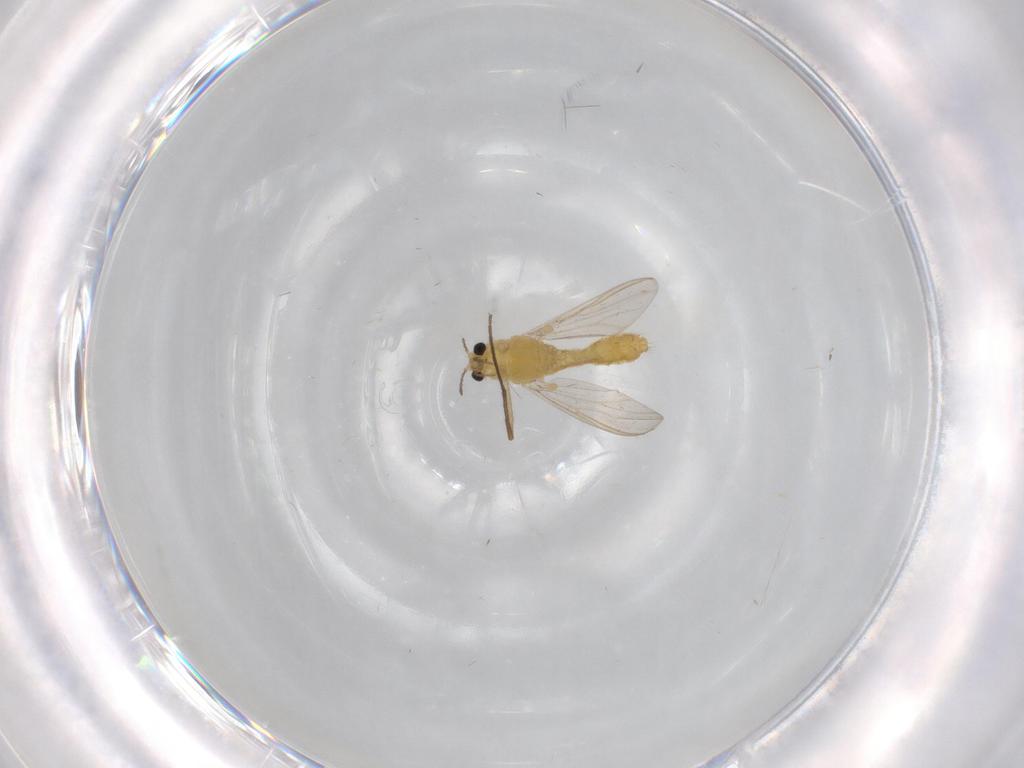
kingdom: Animalia
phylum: Arthropoda
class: Insecta
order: Diptera
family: Chironomidae
